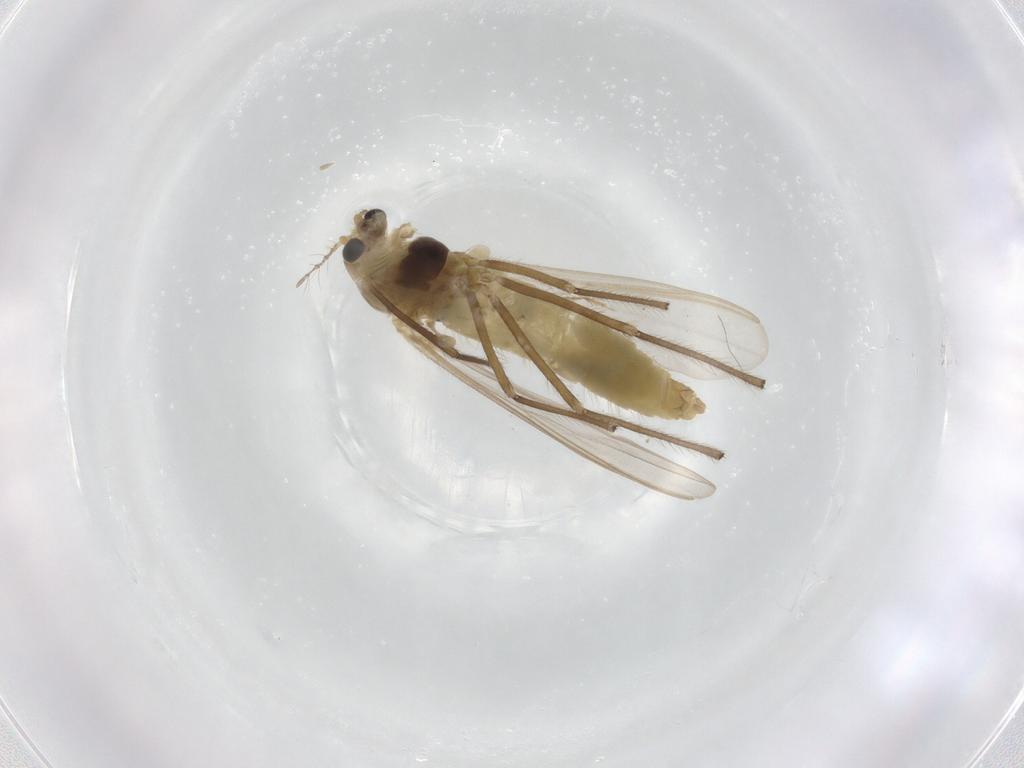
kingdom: Animalia
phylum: Arthropoda
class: Insecta
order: Diptera
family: Chironomidae
